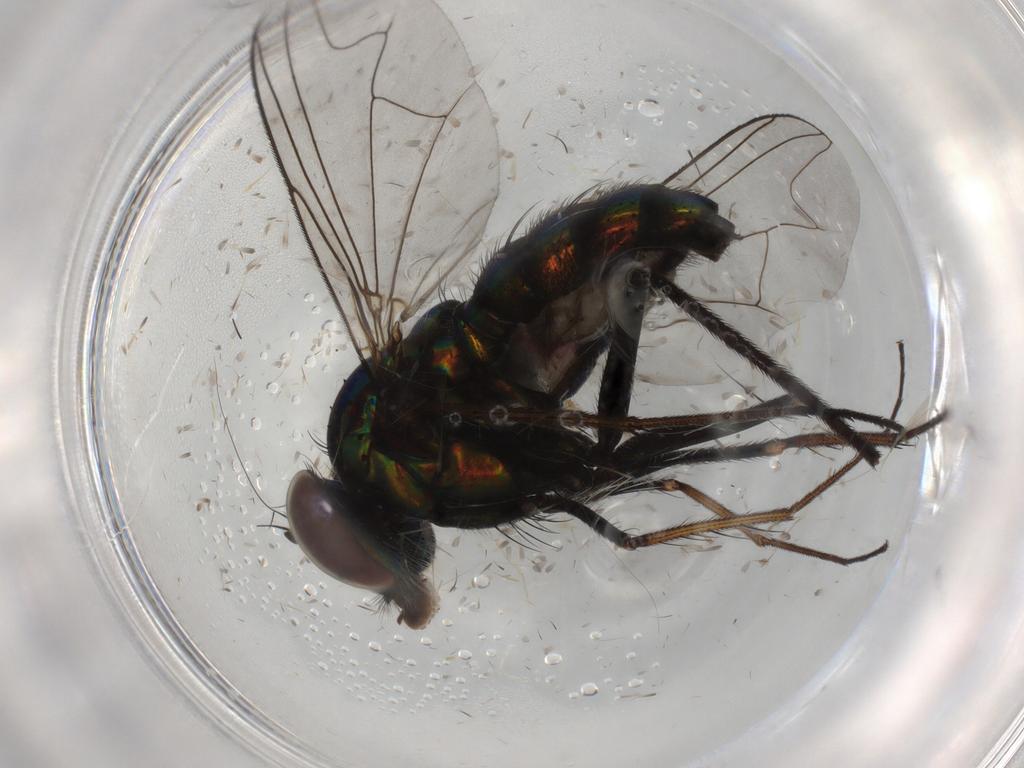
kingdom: Animalia
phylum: Arthropoda
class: Insecta
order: Diptera
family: Dolichopodidae
